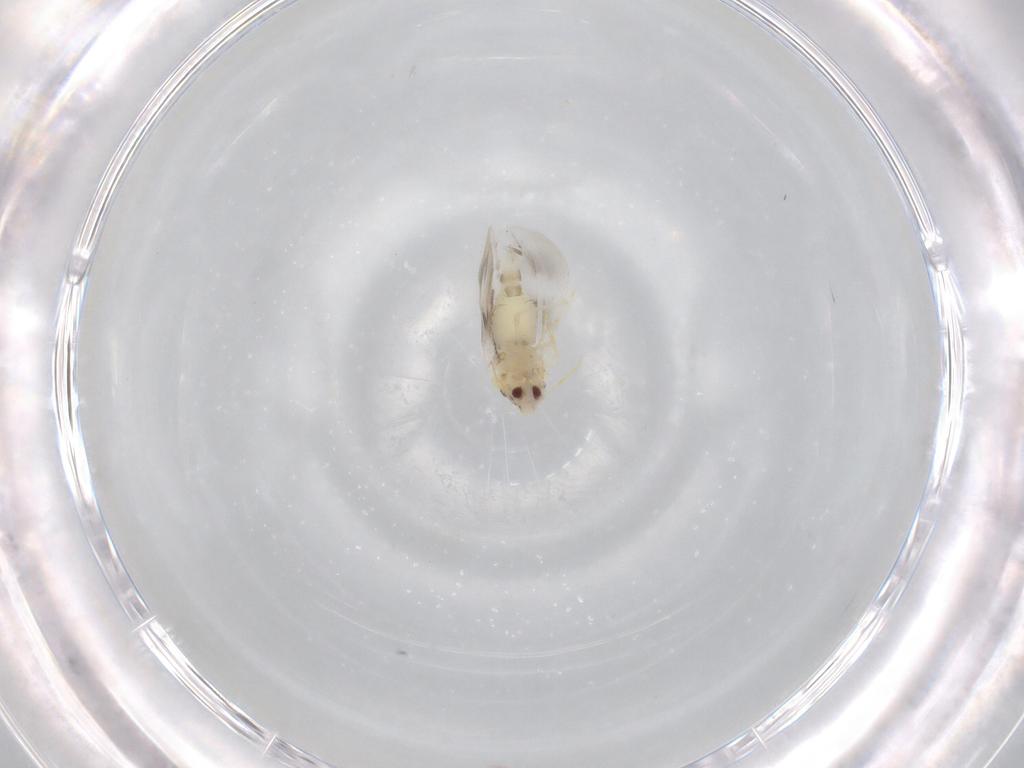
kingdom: Animalia
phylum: Arthropoda
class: Insecta
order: Hemiptera
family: Aleyrodidae
